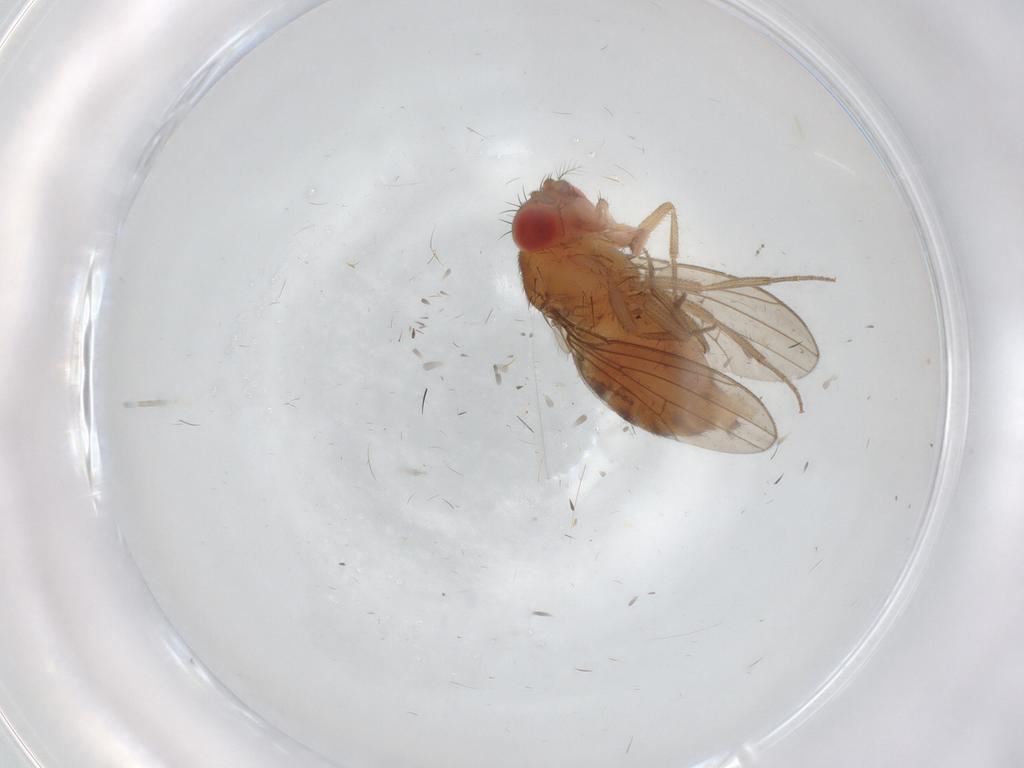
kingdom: Animalia
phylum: Arthropoda
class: Insecta
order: Diptera
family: Drosophilidae
